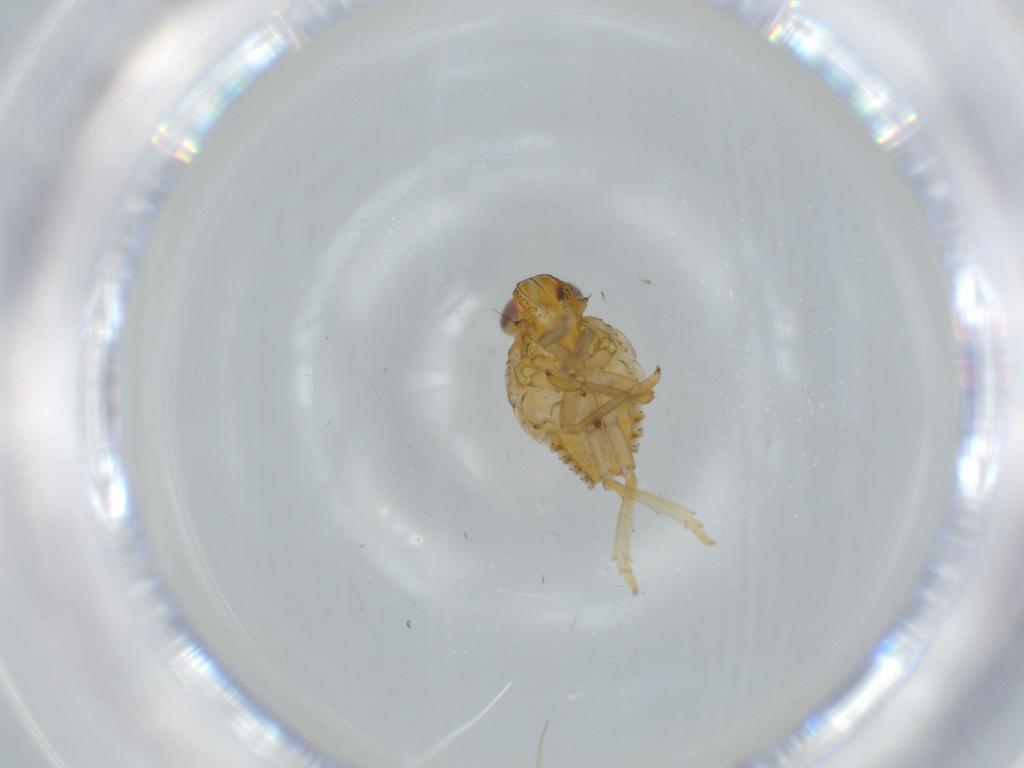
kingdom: Animalia
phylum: Arthropoda
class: Insecta
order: Hemiptera
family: Issidae
